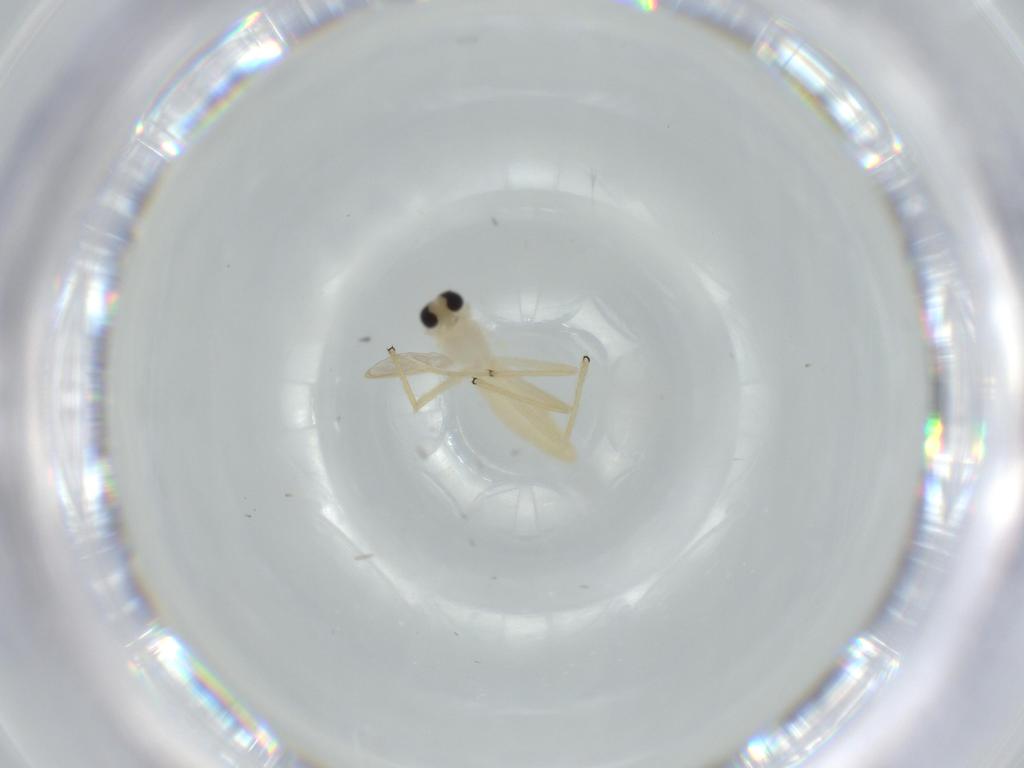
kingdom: Animalia
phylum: Arthropoda
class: Insecta
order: Diptera
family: Chironomidae
